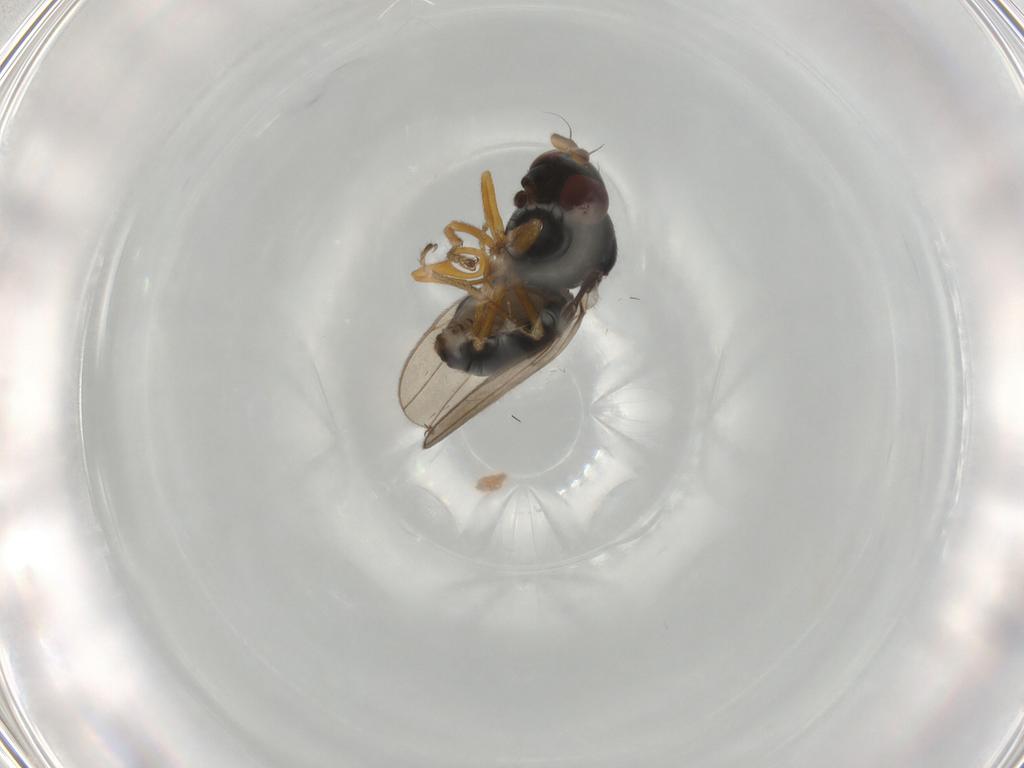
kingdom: Animalia
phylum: Arthropoda
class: Insecta
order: Diptera
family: Ephydridae
